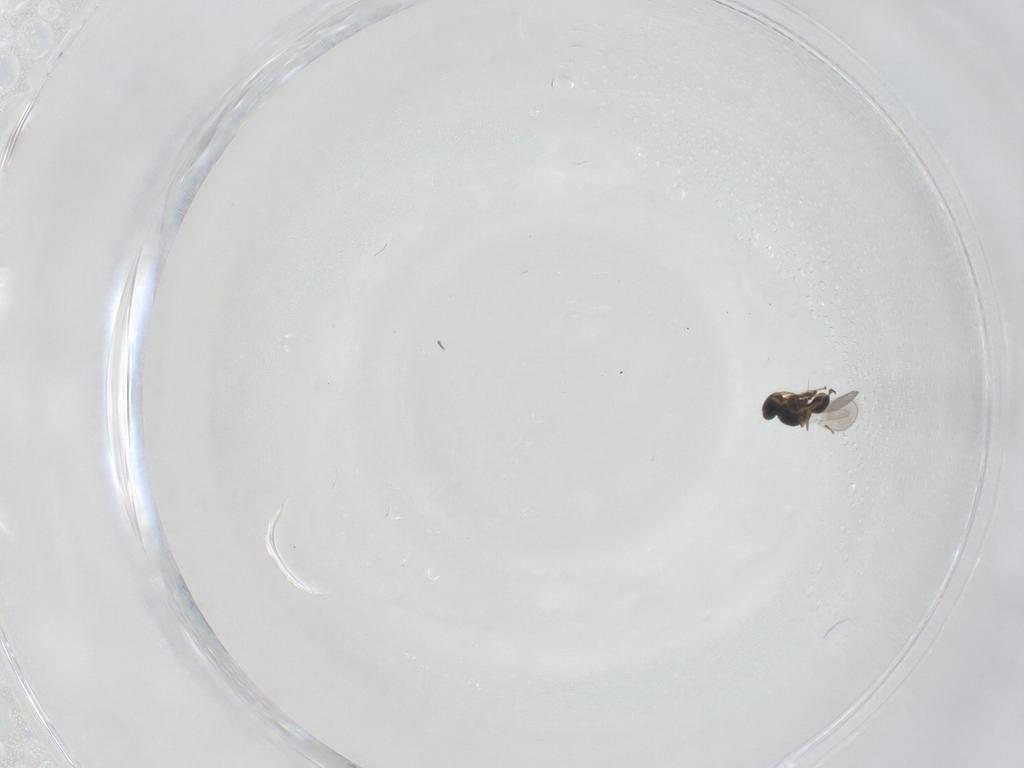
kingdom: Animalia
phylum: Arthropoda
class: Insecta
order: Hymenoptera
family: Platygastridae
